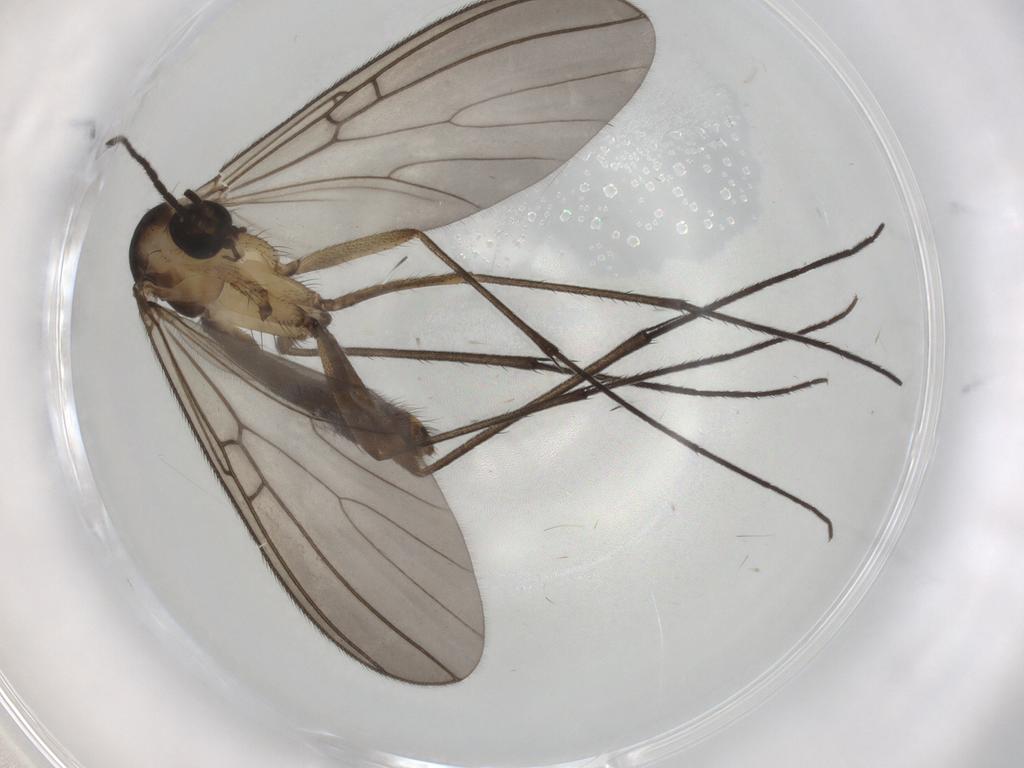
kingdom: Animalia
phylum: Arthropoda
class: Insecta
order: Diptera
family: Mycetophilidae
